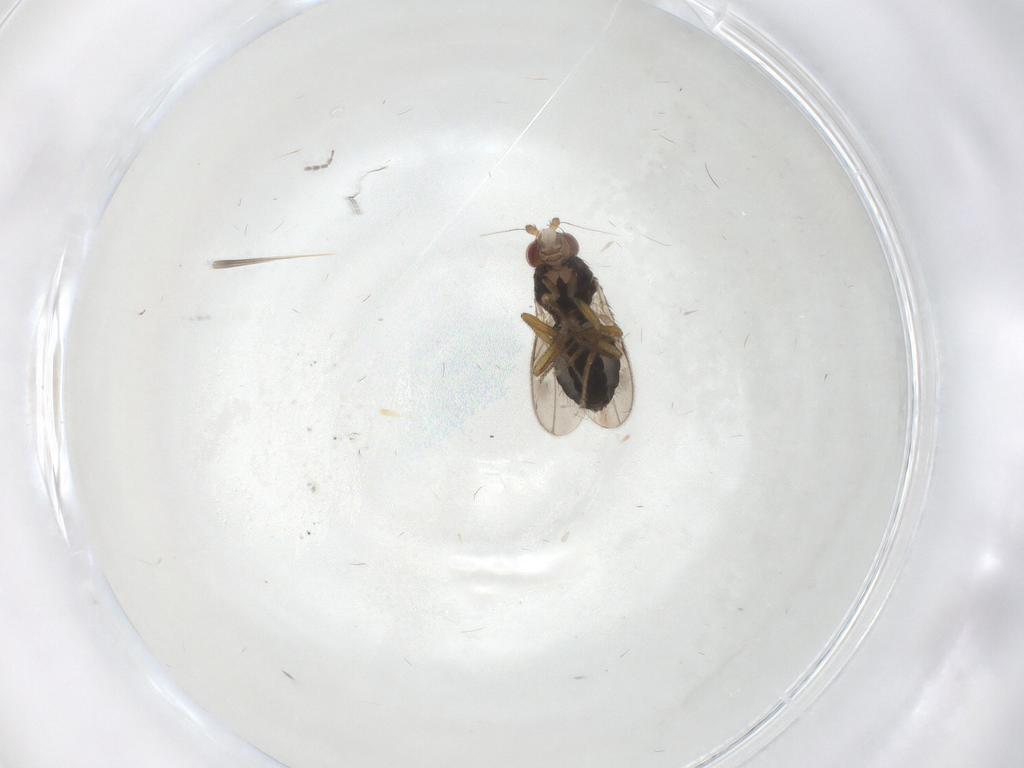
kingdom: Animalia
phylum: Arthropoda
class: Insecta
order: Diptera
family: Sphaeroceridae
